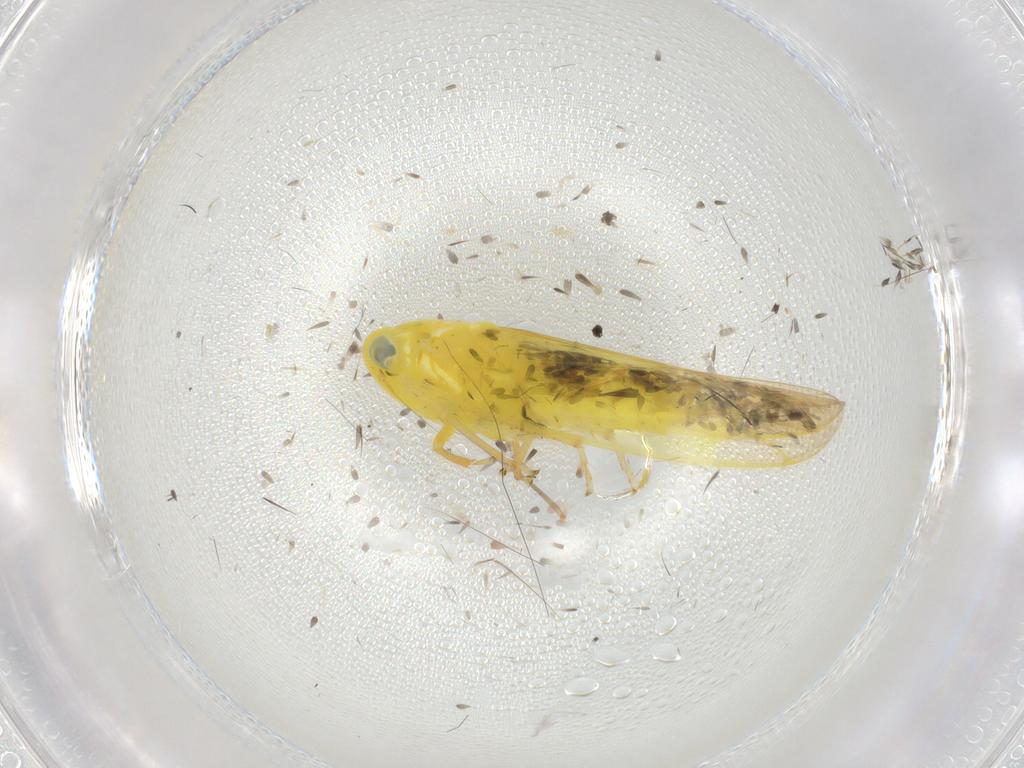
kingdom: Animalia
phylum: Arthropoda
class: Insecta
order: Hemiptera
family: Cicadellidae
